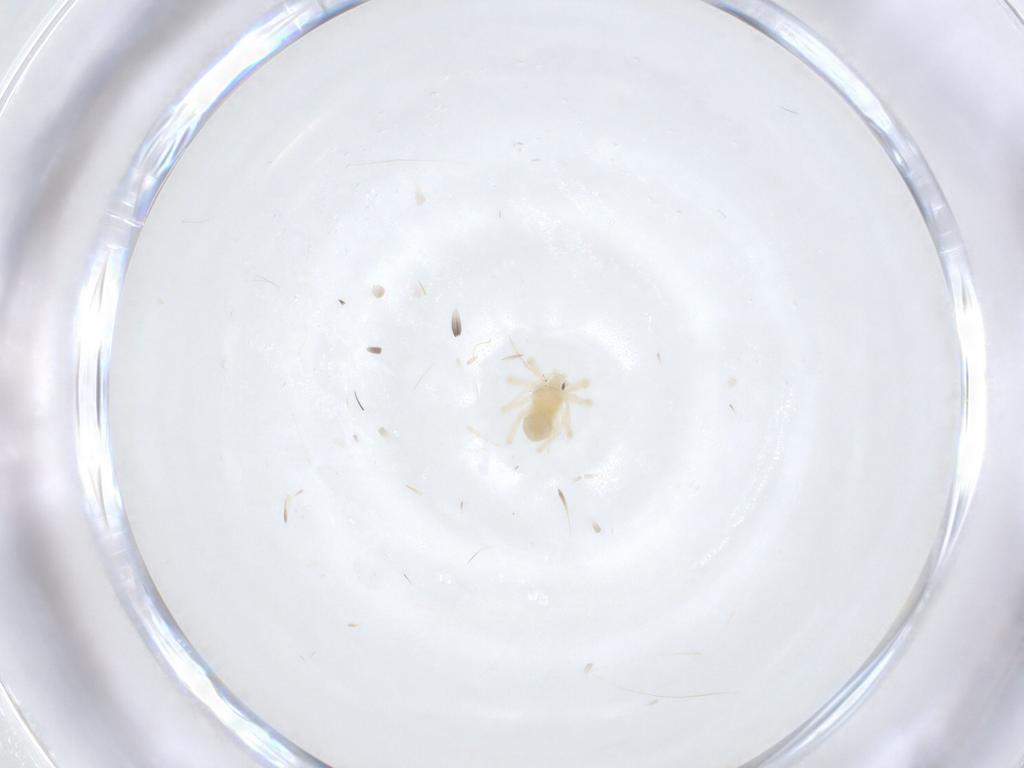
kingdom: Animalia
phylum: Arthropoda
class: Arachnida
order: Trombidiformes
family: Anystidae
